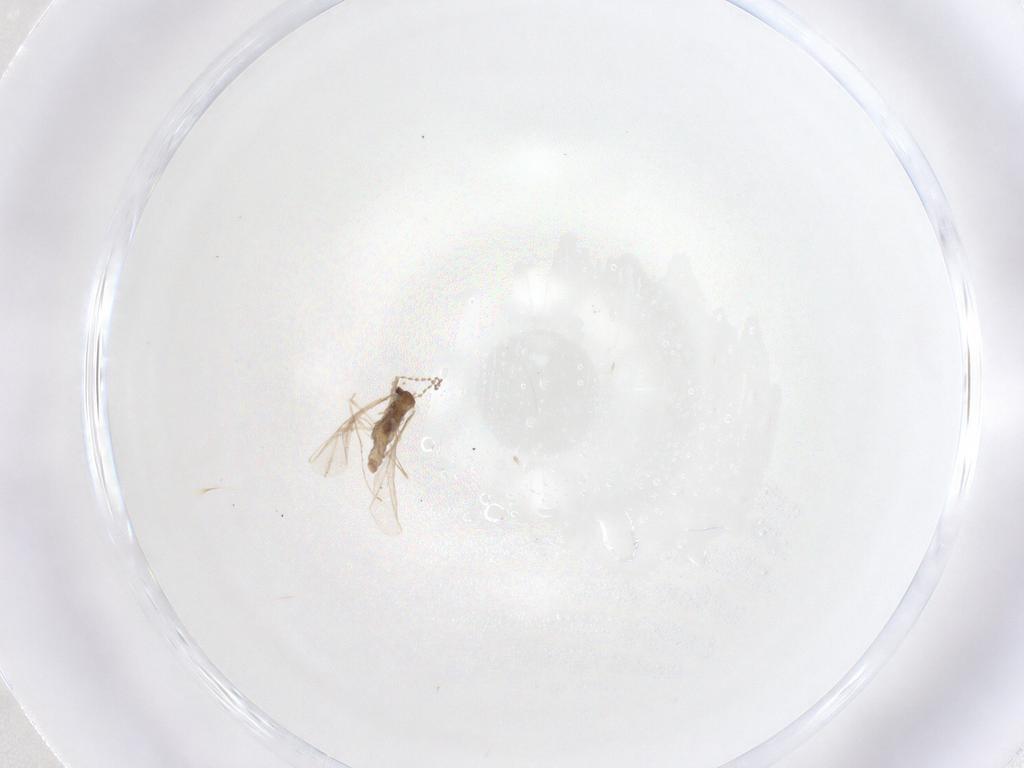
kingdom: Animalia
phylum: Arthropoda
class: Insecta
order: Diptera
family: Cecidomyiidae
